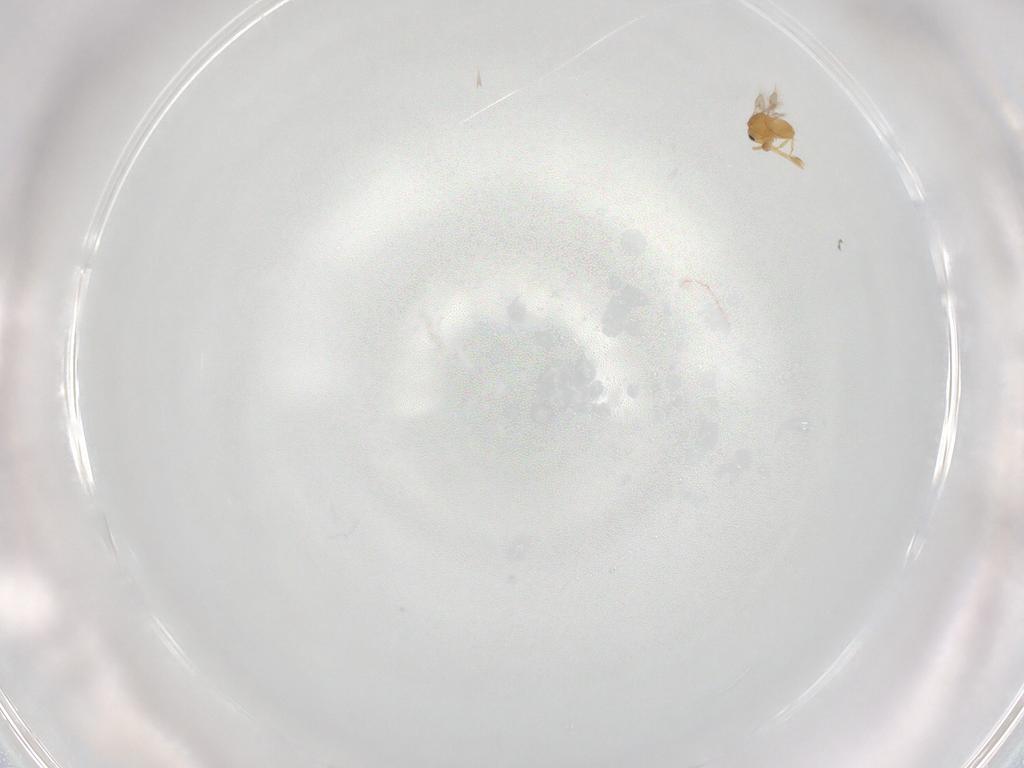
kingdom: Animalia
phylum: Arthropoda
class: Insecta
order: Hymenoptera
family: Scelionidae
